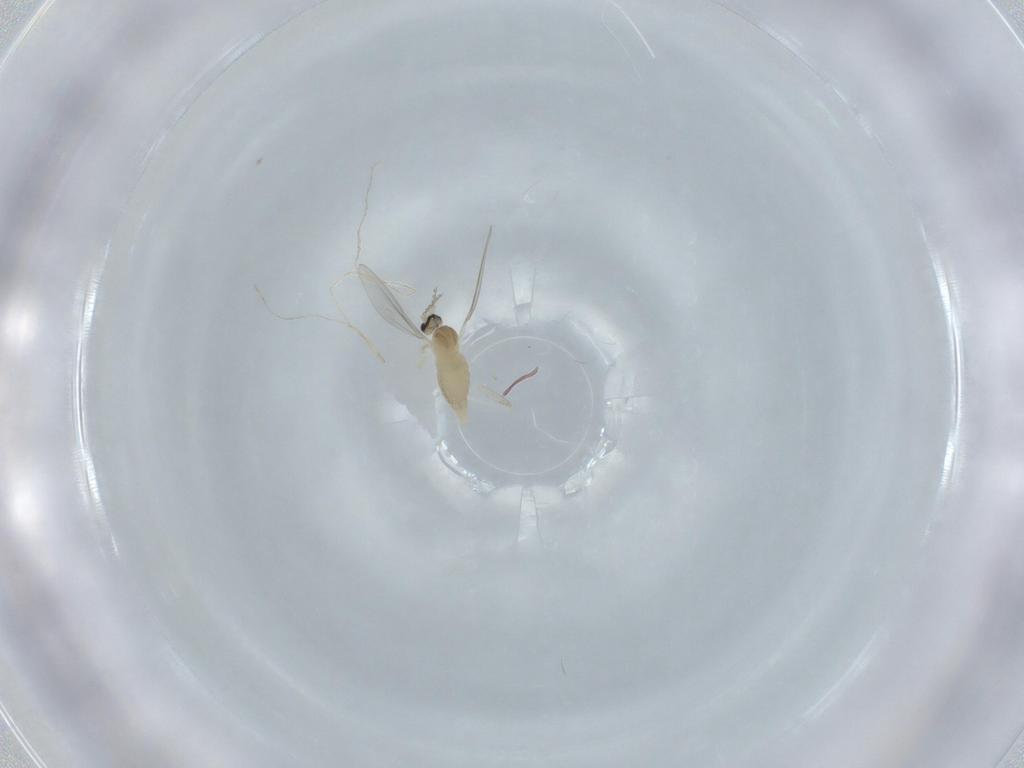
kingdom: Animalia
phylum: Arthropoda
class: Insecta
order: Diptera
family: Cecidomyiidae
